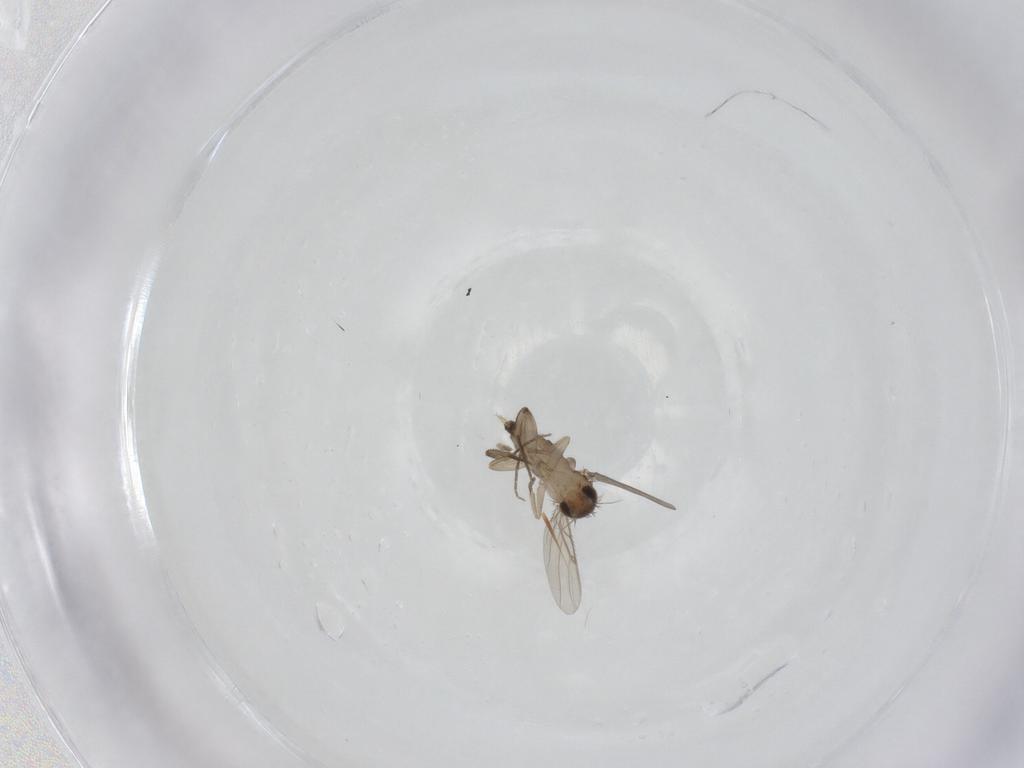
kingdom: Animalia
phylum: Arthropoda
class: Insecta
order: Diptera
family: Phoridae
